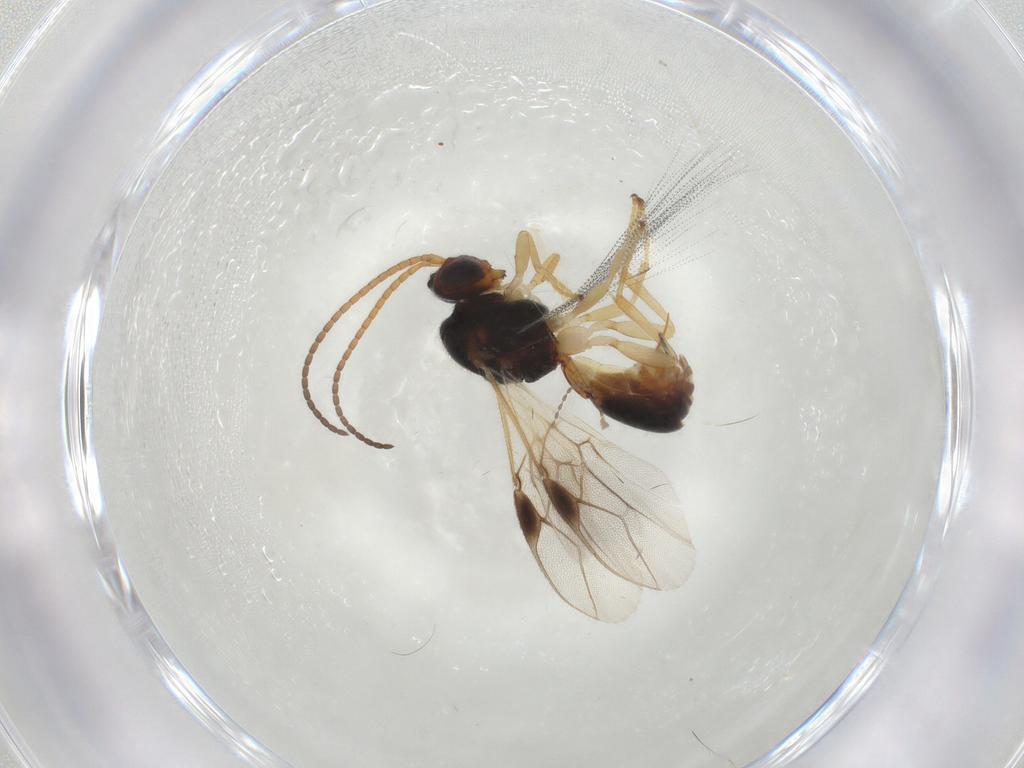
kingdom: Animalia
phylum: Arthropoda
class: Insecta
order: Hymenoptera
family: Braconidae
